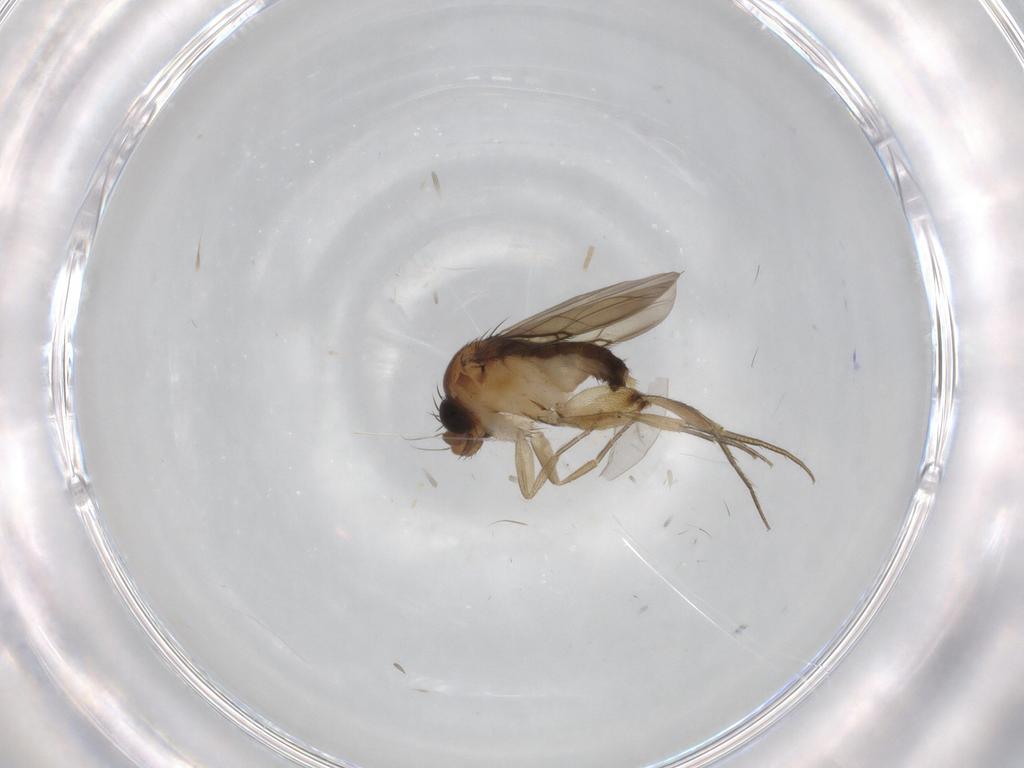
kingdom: Animalia
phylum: Arthropoda
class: Insecta
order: Diptera
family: Phoridae
